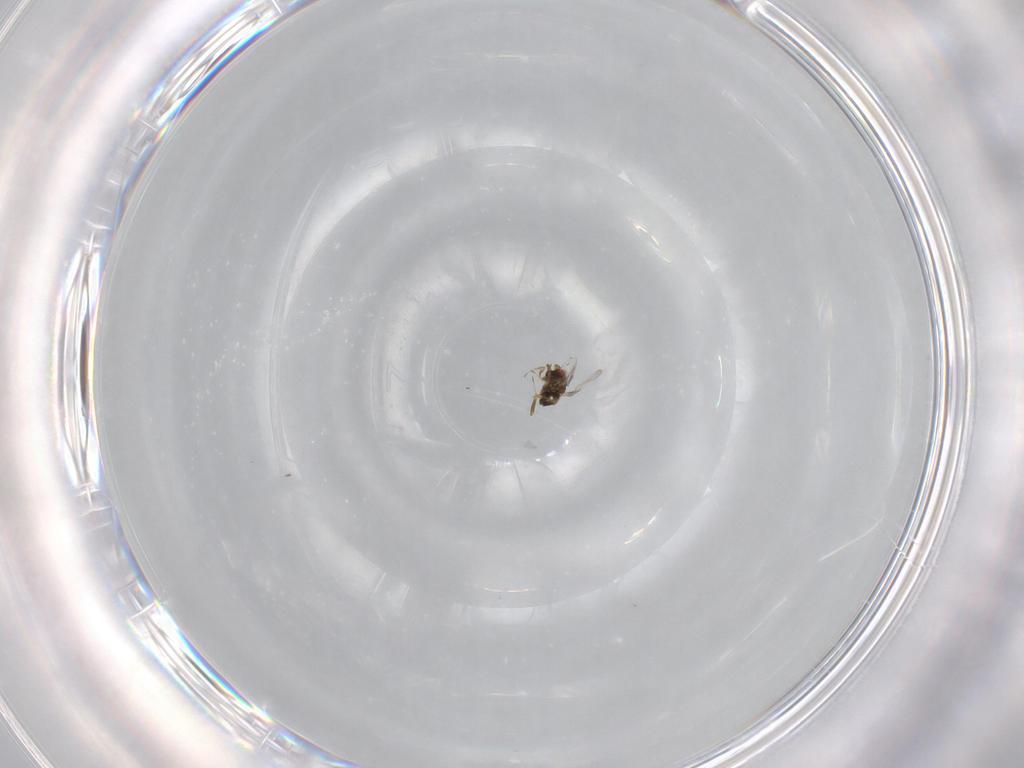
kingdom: Animalia
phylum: Arthropoda
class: Insecta
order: Hymenoptera
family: Trichogrammatidae
